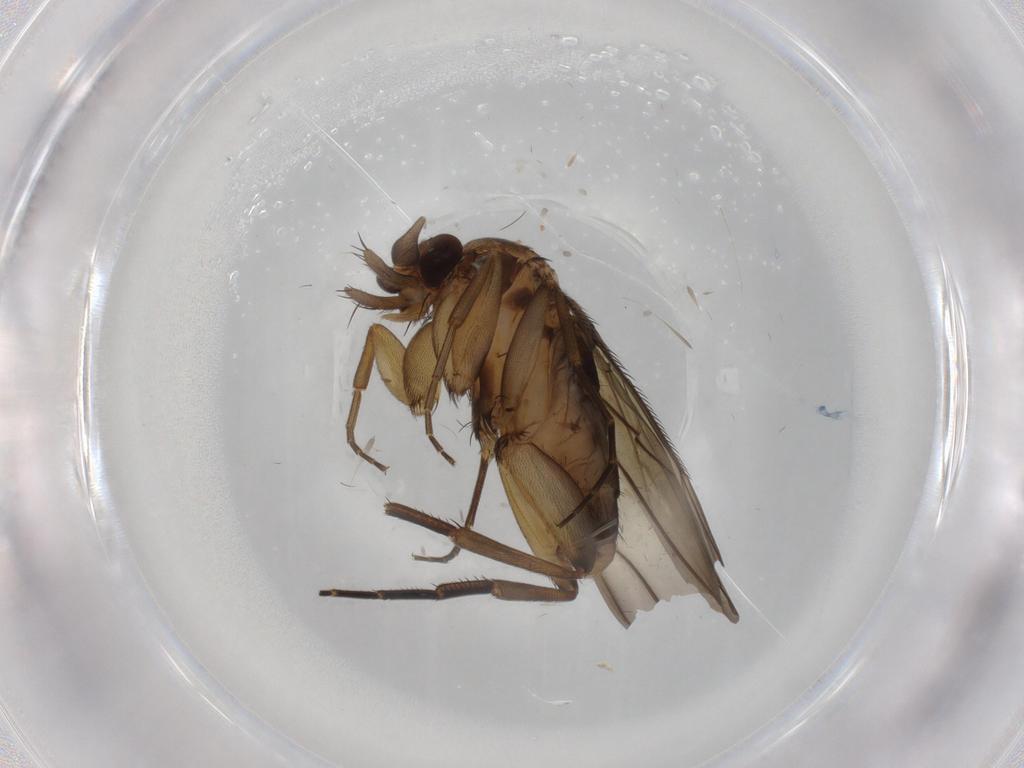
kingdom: Animalia
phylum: Arthropoda
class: Insecta
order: Diptera
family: Phoridae
